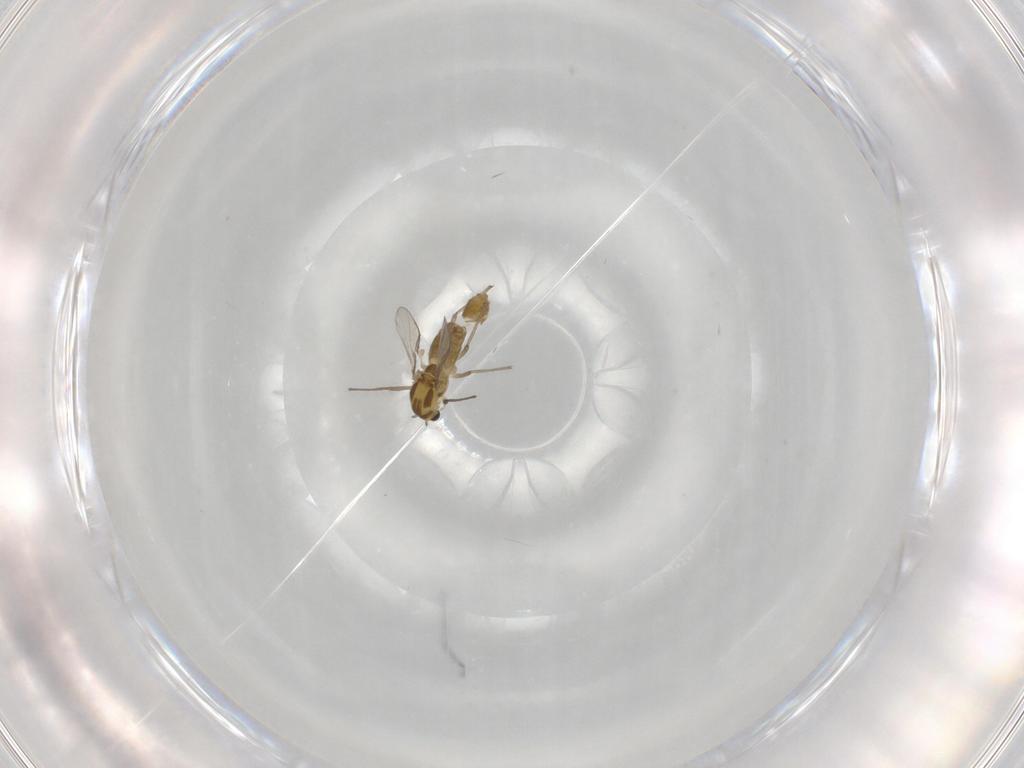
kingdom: Animalia
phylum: Arthropoda
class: Insecta
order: Diptera
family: Chironomidae
